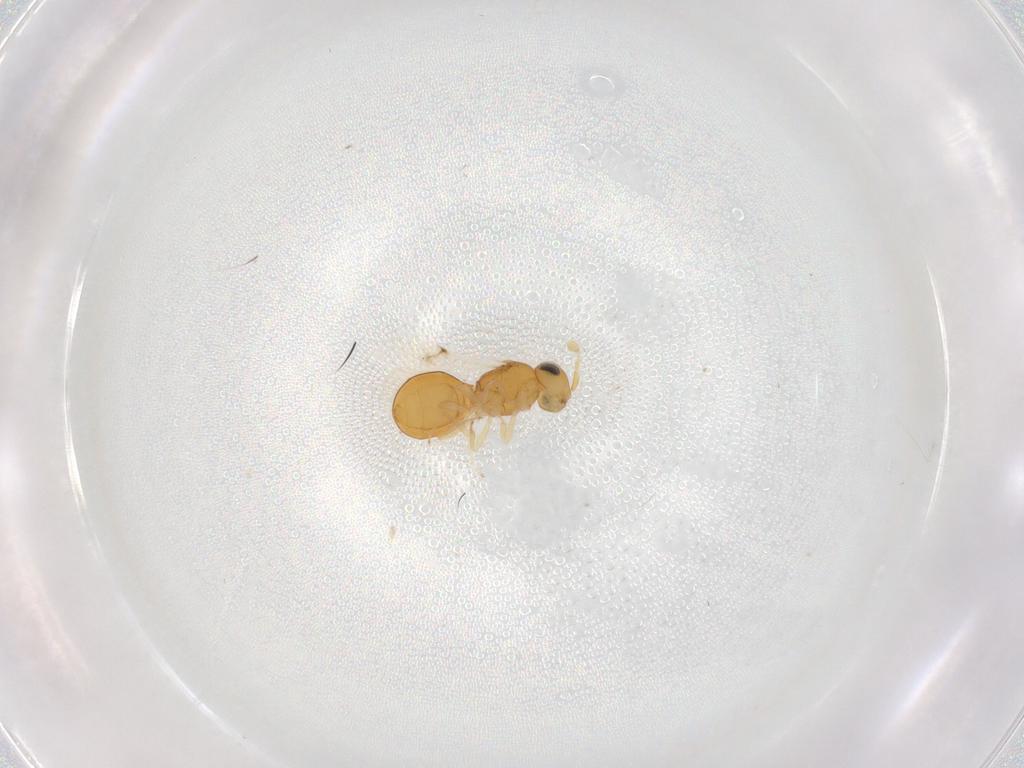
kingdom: Animalia
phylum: Arthropoda
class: Insecta
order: Hymenoptera
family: Scelionidae
